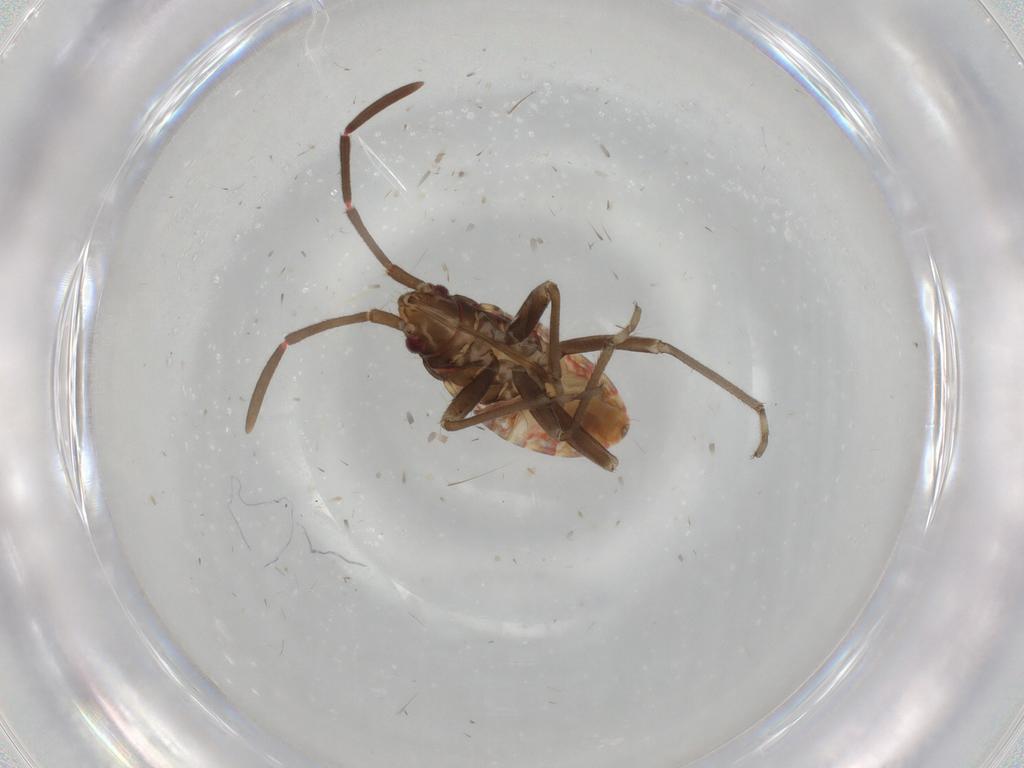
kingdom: Animalia
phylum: Arthropoda
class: Insecta
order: Hemiptera
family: Rhyparochromidae
